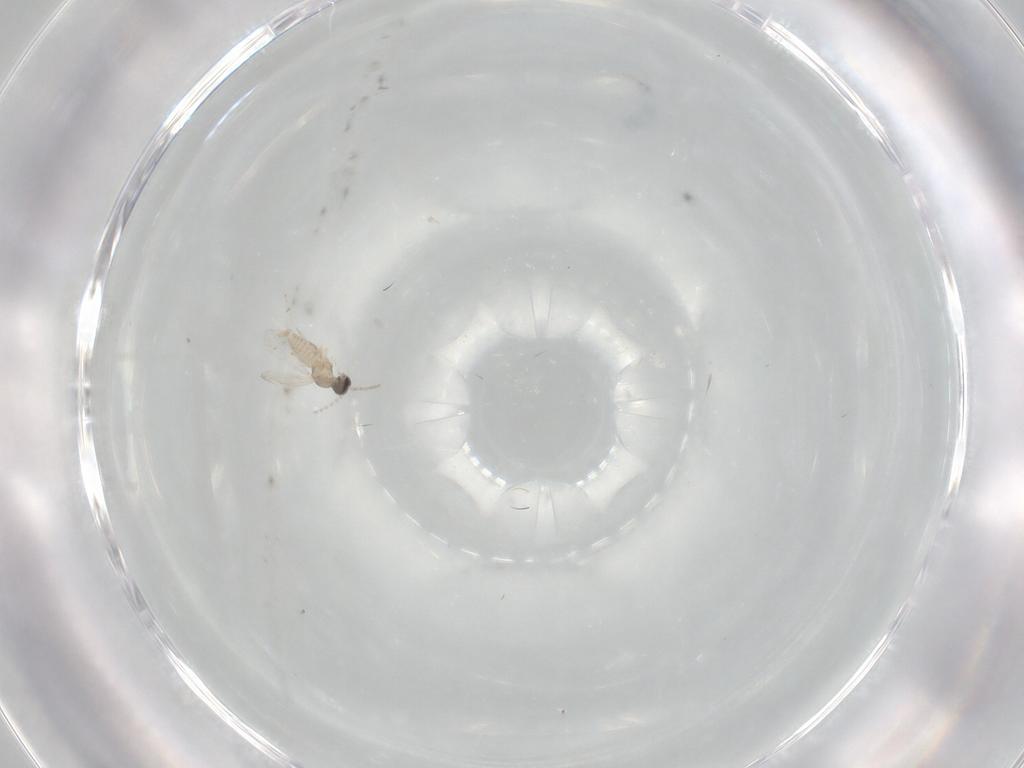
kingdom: Animalia
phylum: Arthropoda
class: Insecta
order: Diptera
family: Cecidomyiidae
